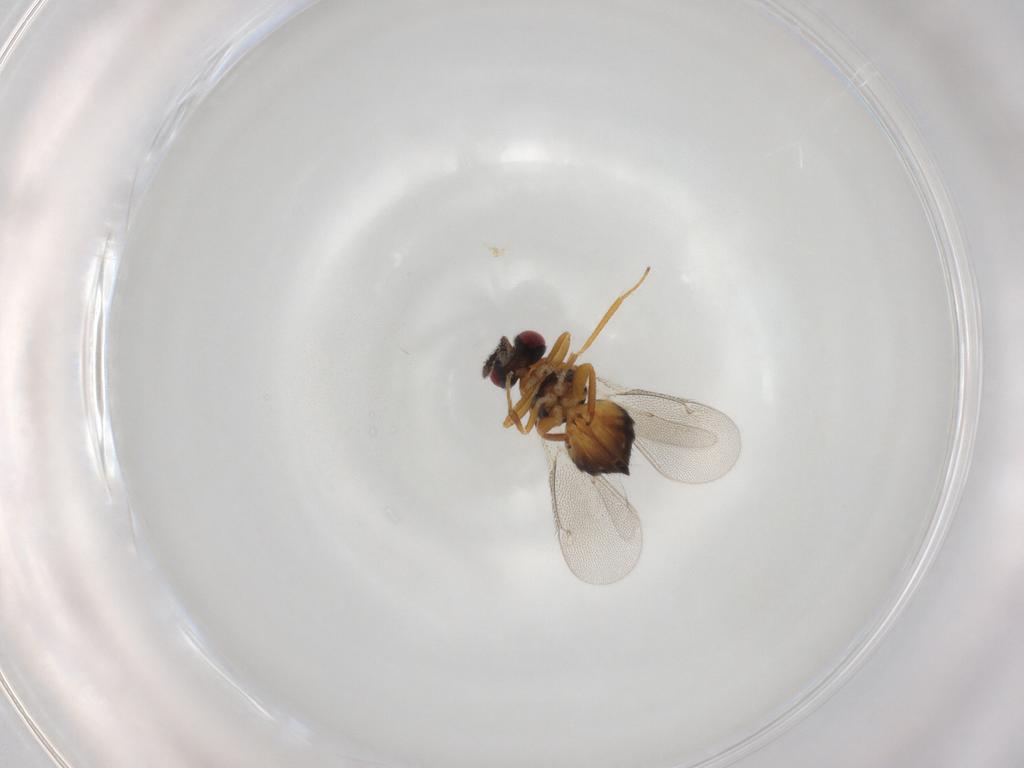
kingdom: Animalia
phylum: Arthropoda
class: Insecta
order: Hymenoptera
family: Eulophidae
